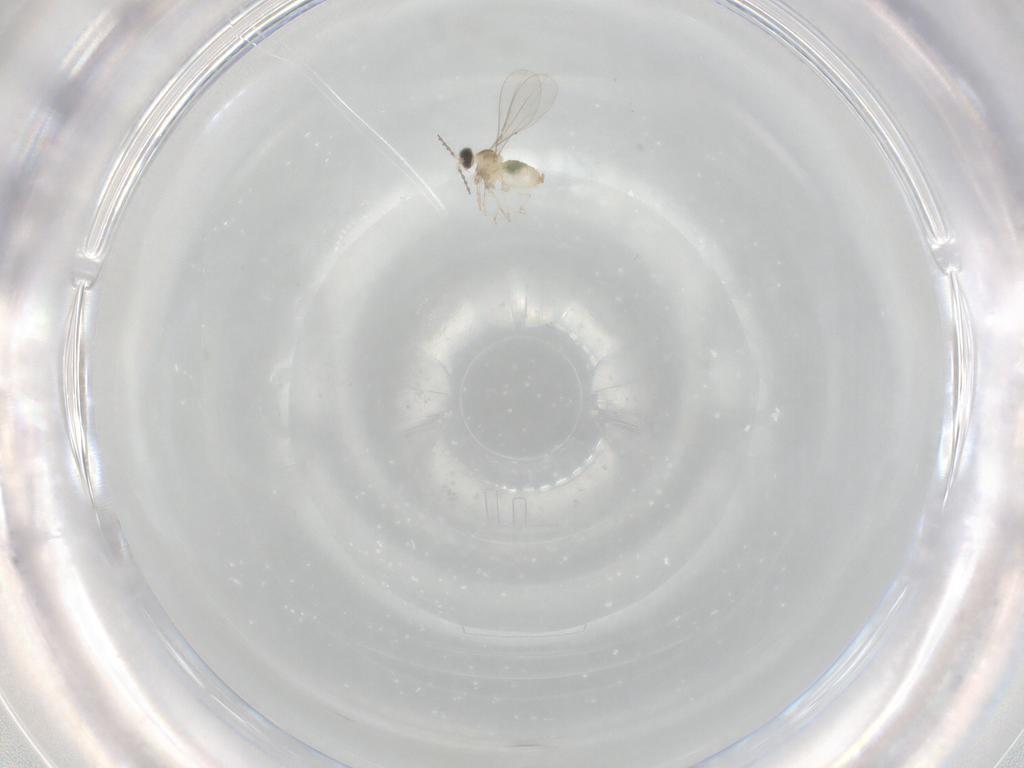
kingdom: Animalia
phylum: Arthropoda
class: Insecta
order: Diptera
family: Cecidomyiidae
